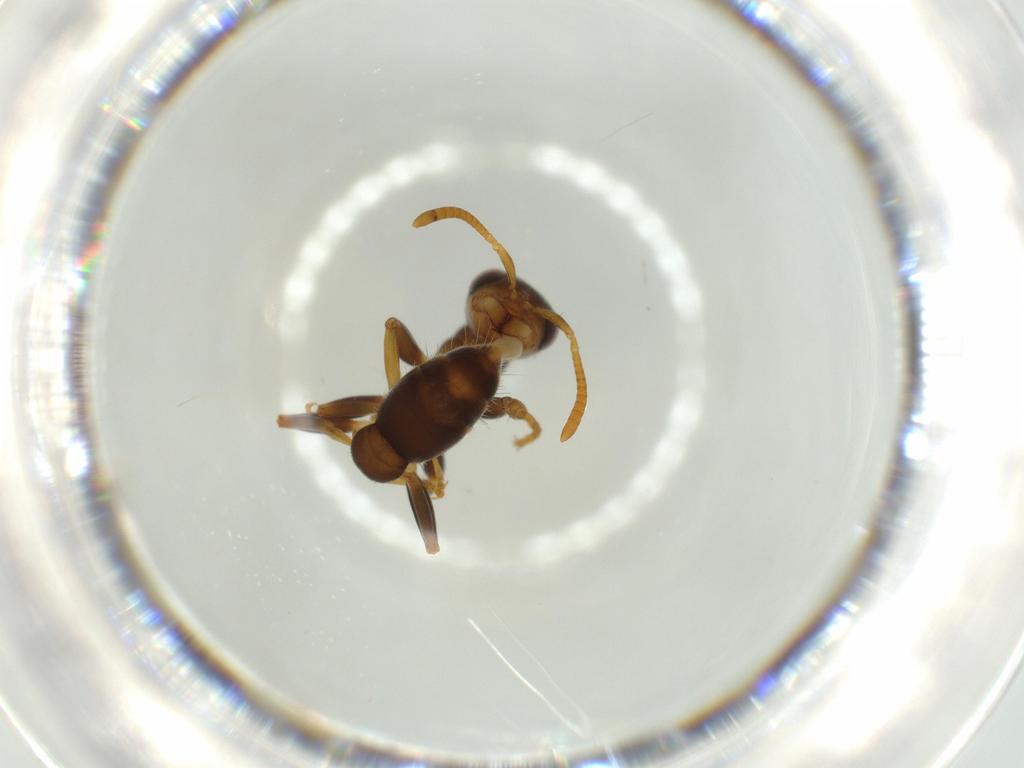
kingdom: Animalia
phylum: Arthropoda
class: Insecta
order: Hymenoptera
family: Formicidae
